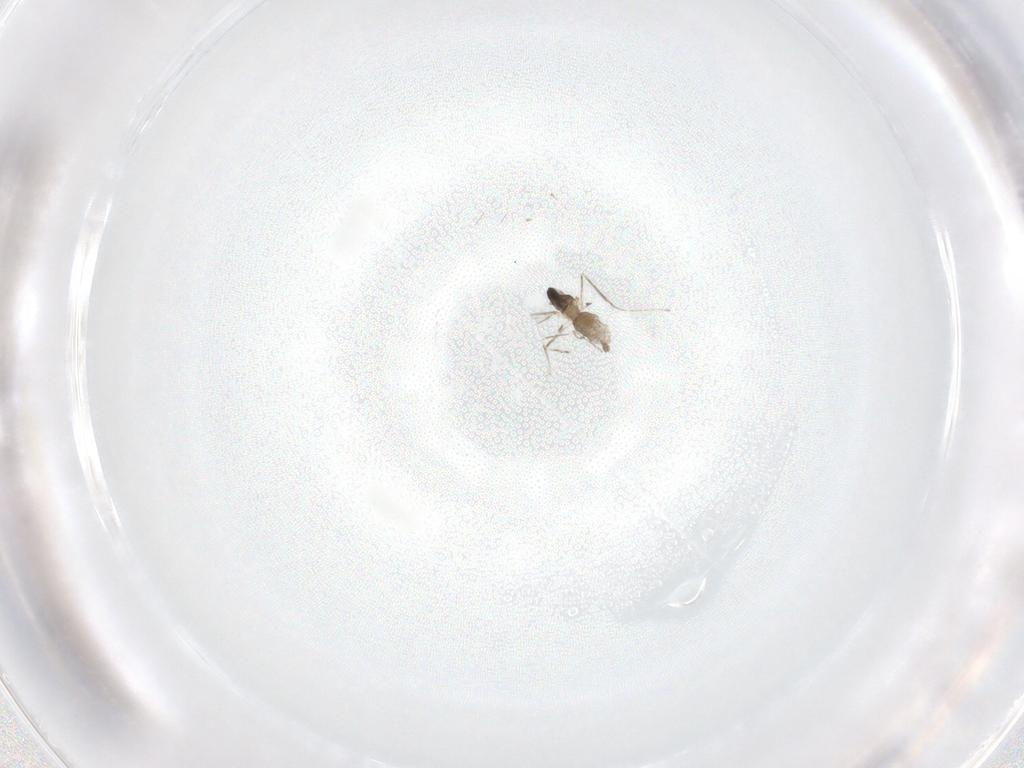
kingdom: Animalia
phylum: Arthropoda
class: Insecta
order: Diptera
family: Cecidomyiidae
